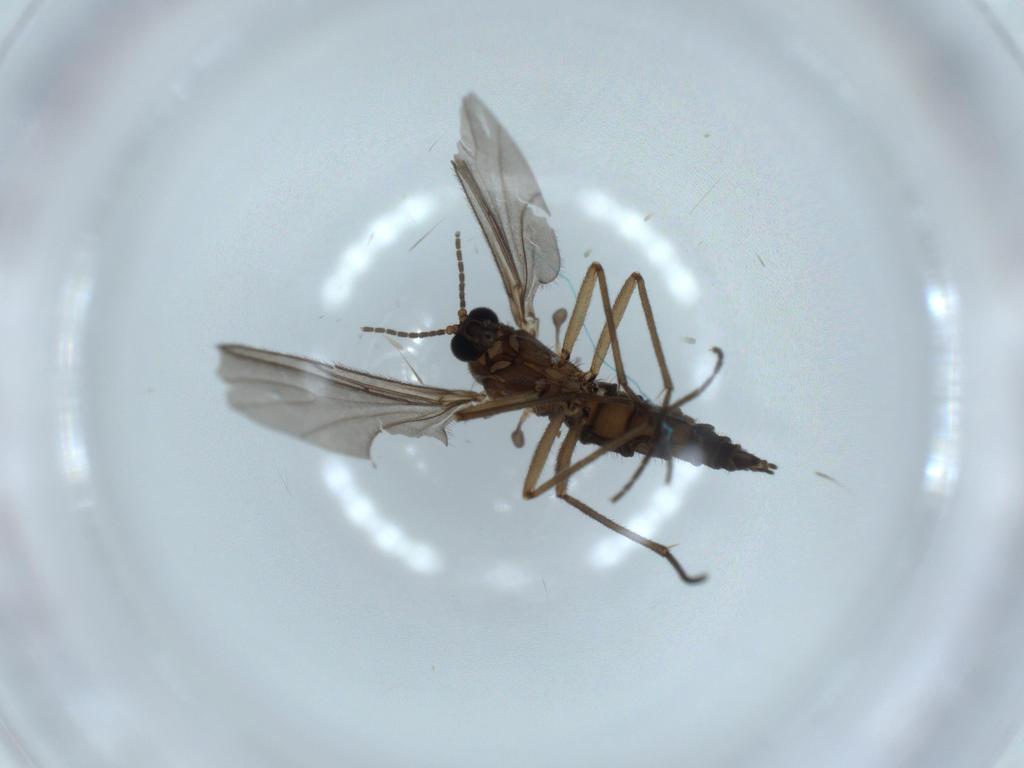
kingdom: Animalia
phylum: Arthropoda
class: Insecta
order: Diptera
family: Sciaridae
